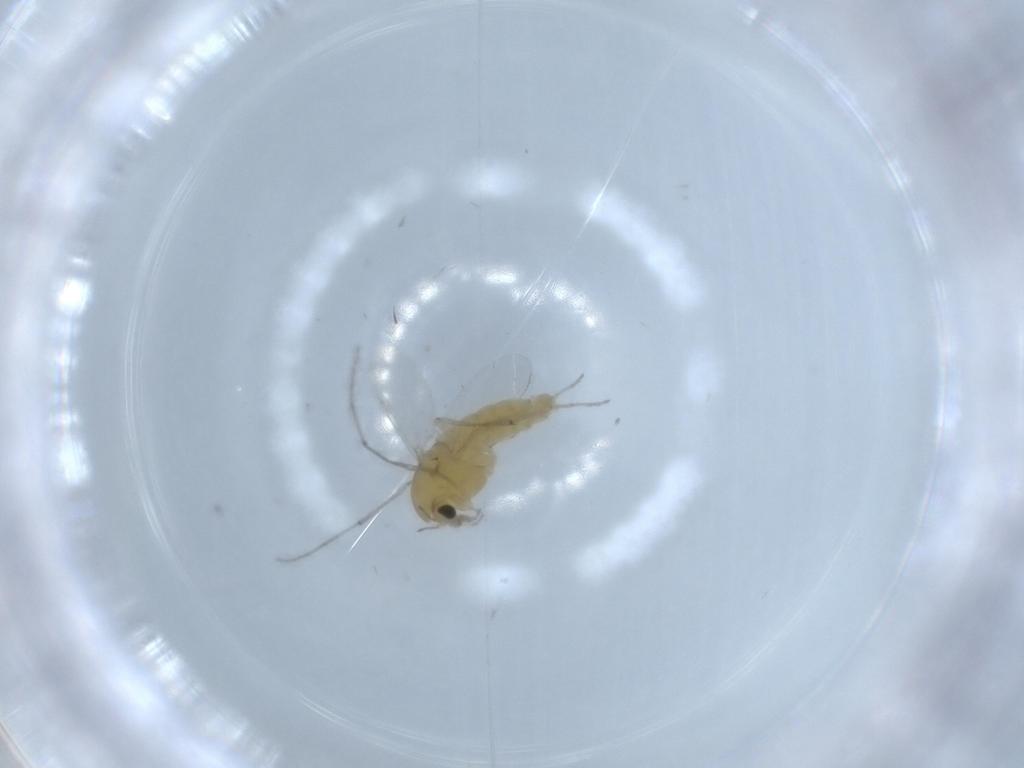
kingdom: Animalia
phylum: Arthropoda
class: Insecta
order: Diptera
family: Chironomidae
